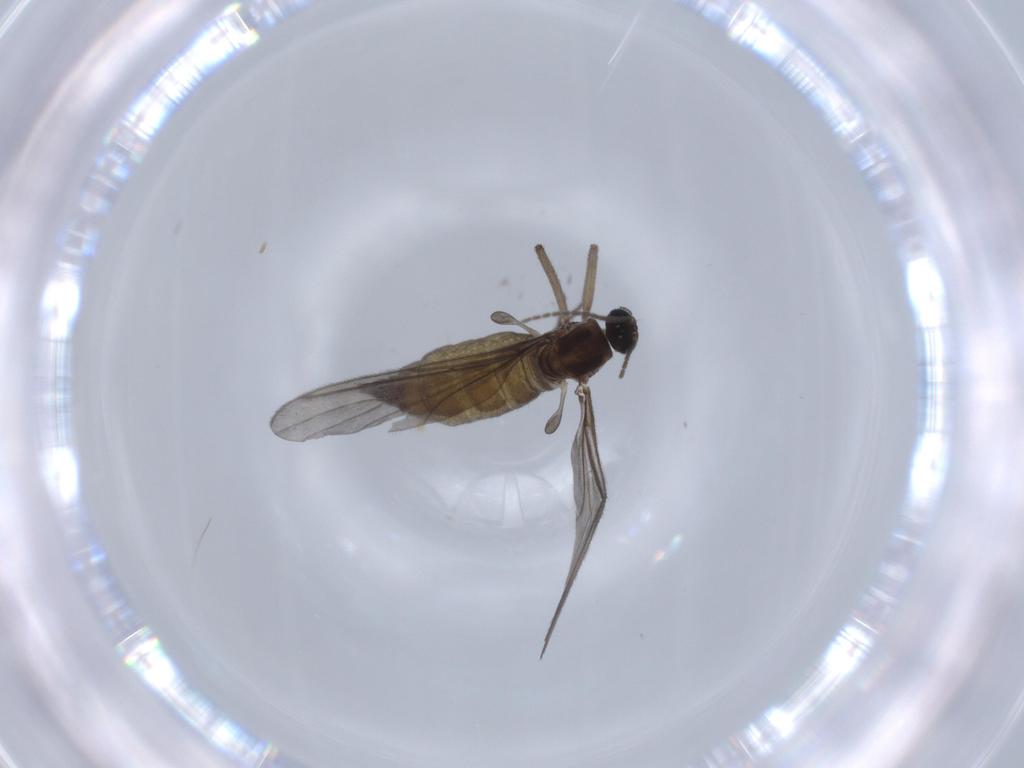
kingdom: Animalia
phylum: Arthropoda
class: Insecta
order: Diptera
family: Sciaridae
